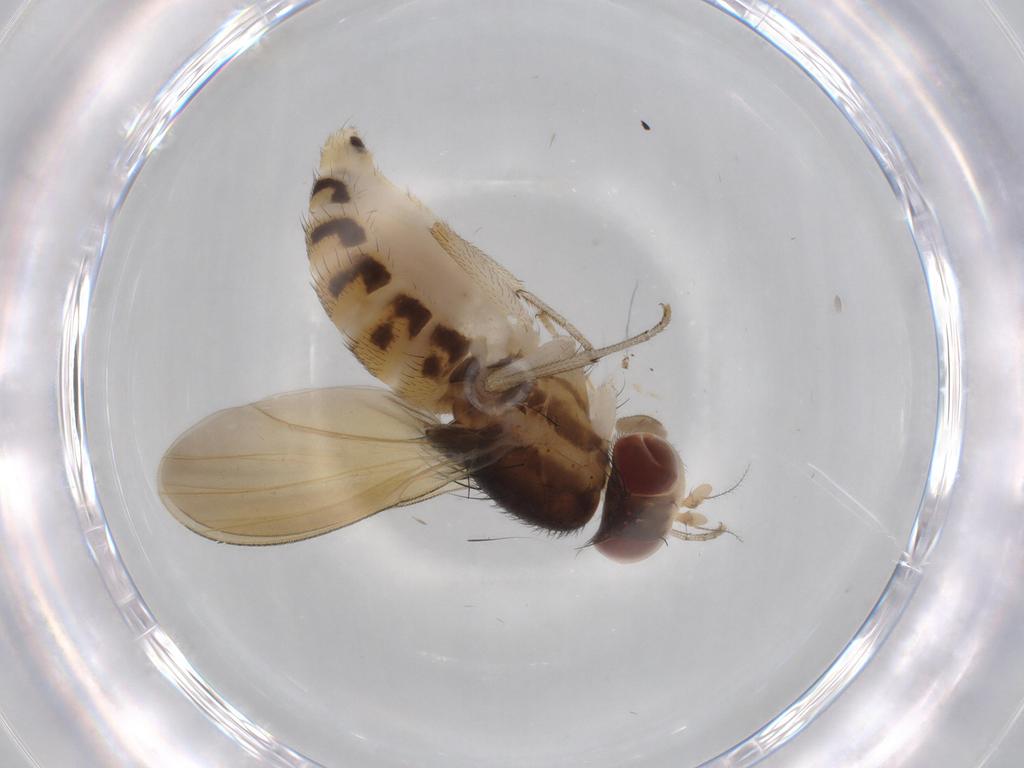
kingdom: Animalia
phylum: Arthropoda
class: Insecta
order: Diptera
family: Ceratopogonidae
